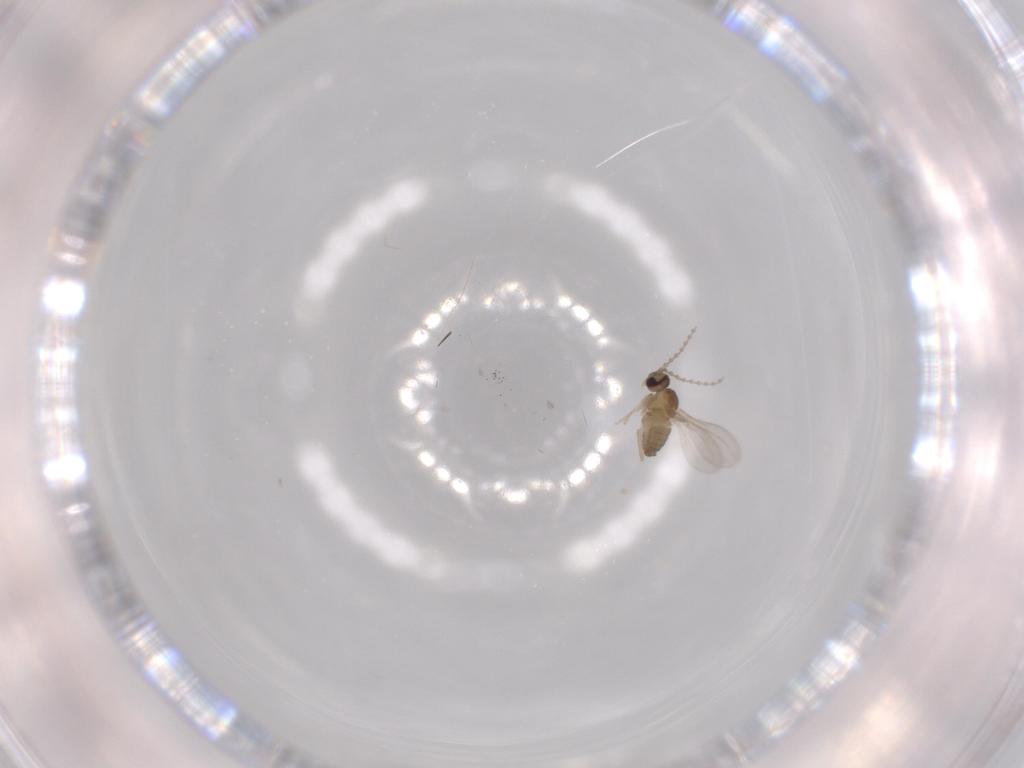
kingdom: Animalia
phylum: Arthropoda
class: Insecta
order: Diptera
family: Cecidomyiidae
